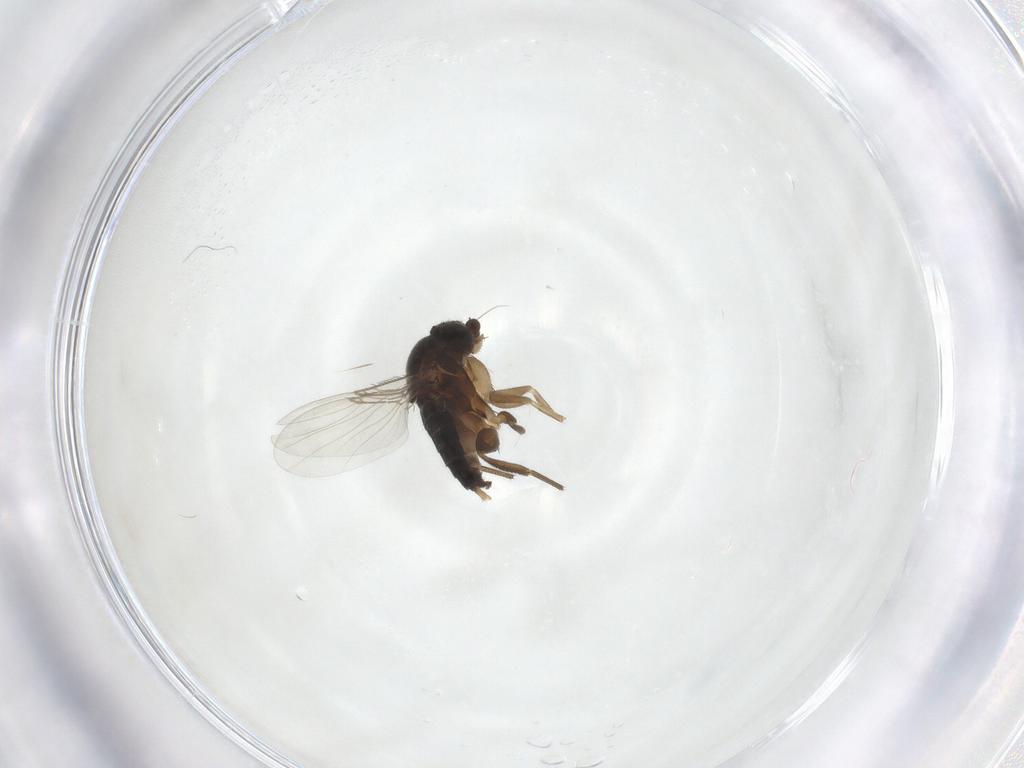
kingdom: Animalia
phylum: Arthropoda
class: Insecta
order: Diptera
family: Phoridae
